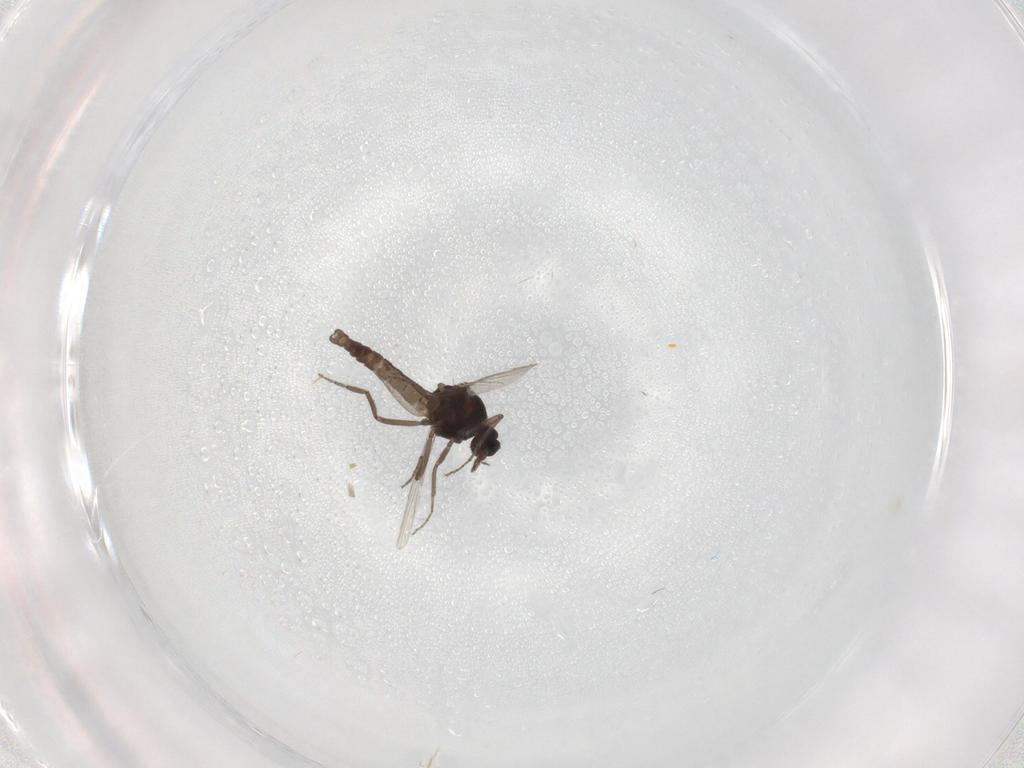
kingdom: Animalia
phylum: Arthropoda
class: Insecta
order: Diptera
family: Ceratopogonidae
